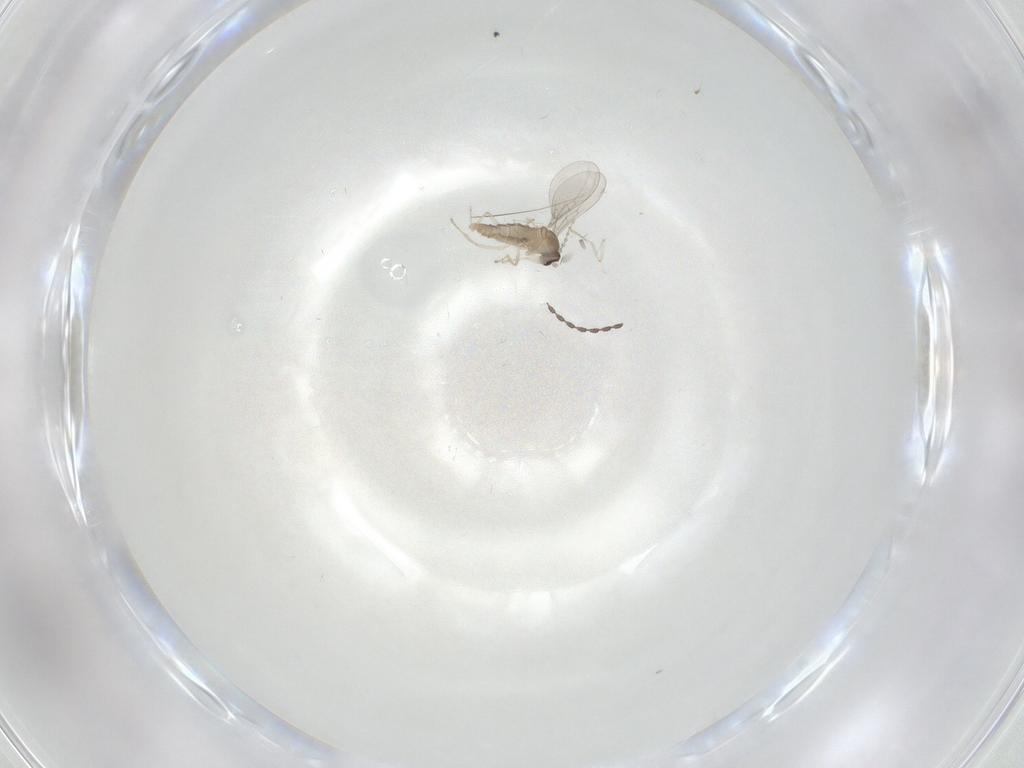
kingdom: Animalia
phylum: Arthropoda
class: Insecta
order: Diptera
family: Cecidomyiidae
